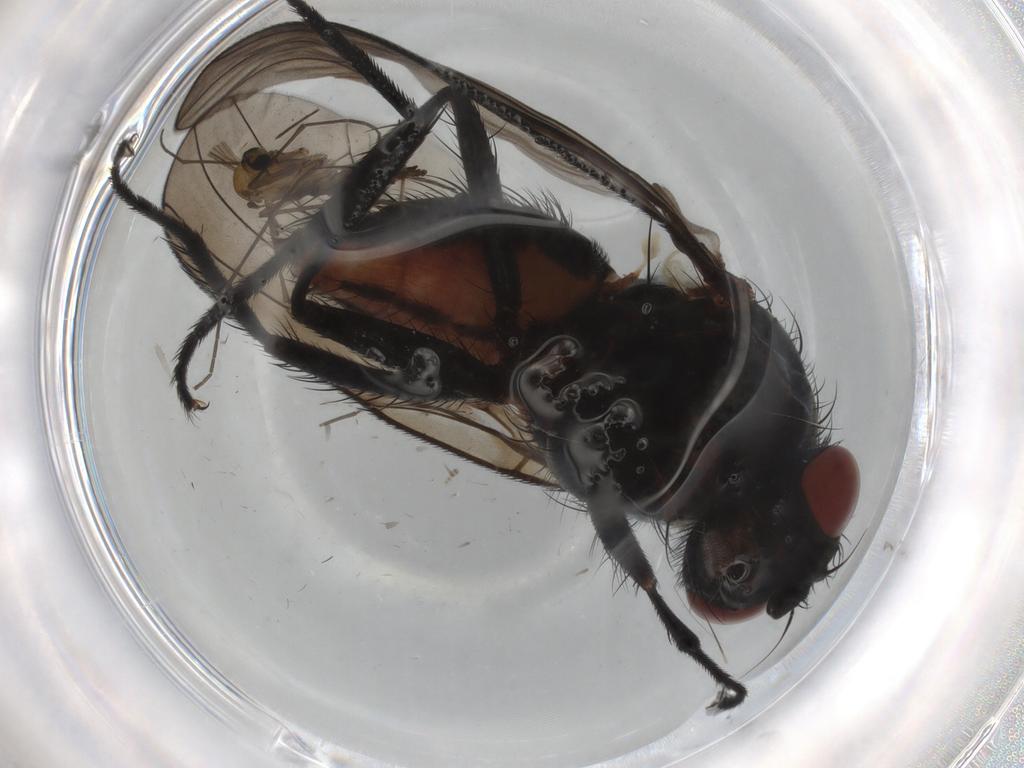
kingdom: Animalia
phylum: Arthropoda
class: Insecta
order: Diptera
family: Anthomyiidae
